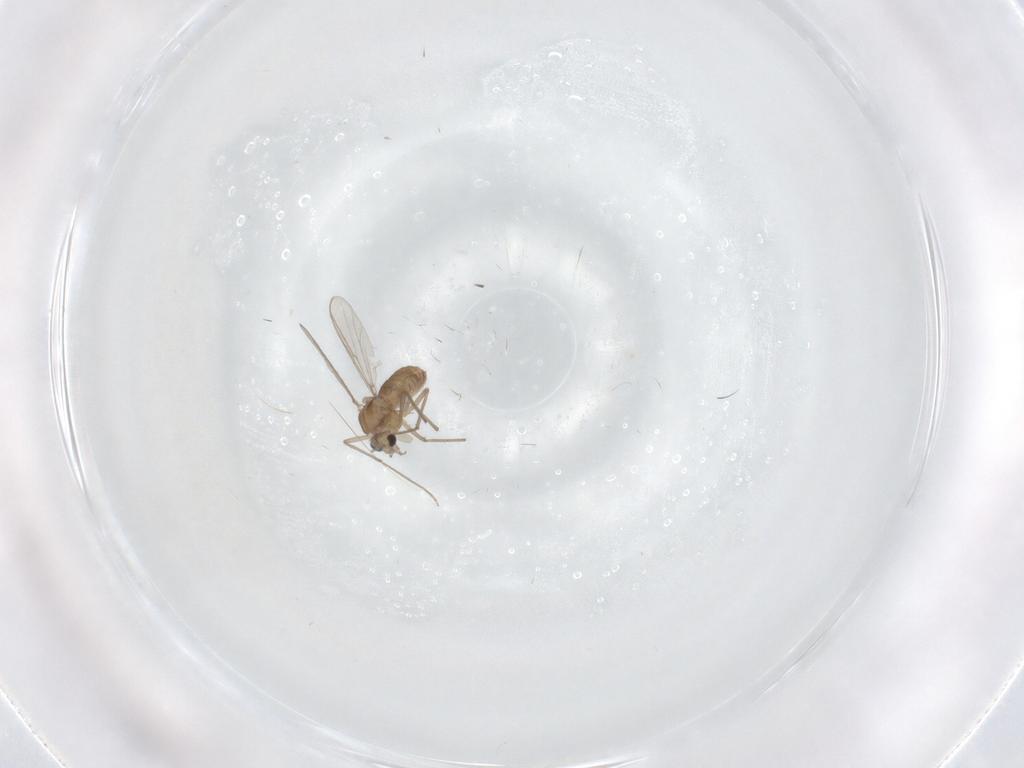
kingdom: Animalia
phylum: Arthropoda
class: Insecta
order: Diptera
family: Chironomidae
